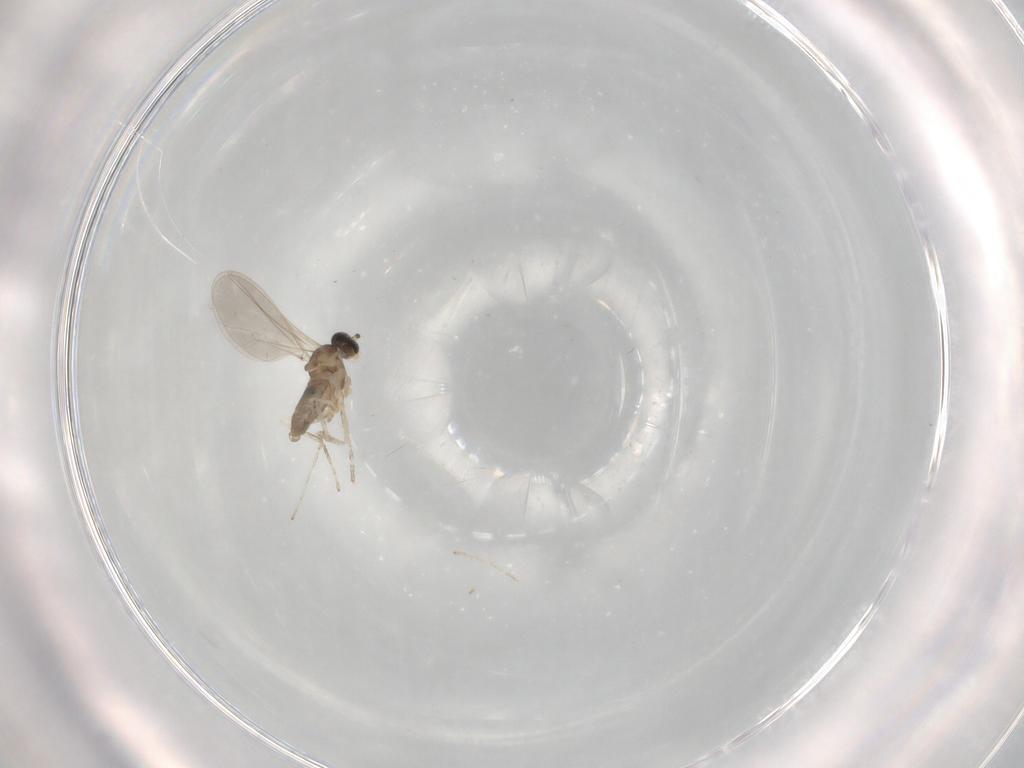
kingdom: Animalia
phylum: Arthropoda
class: Insecta
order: Diptera
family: Cecidomyiidae
